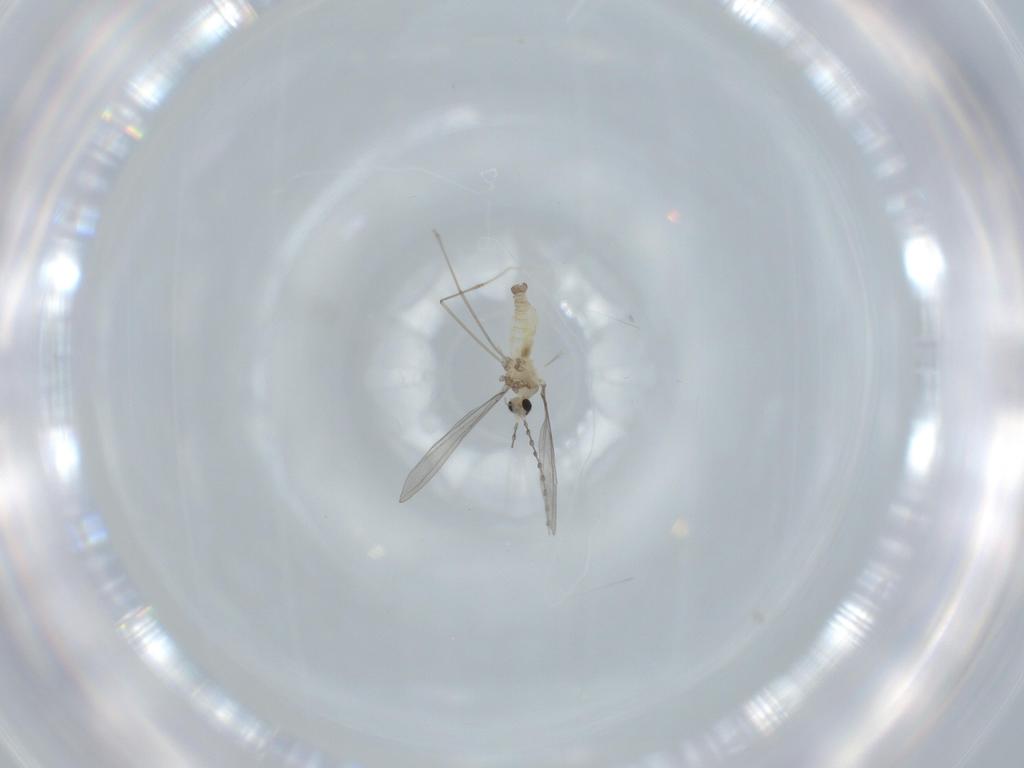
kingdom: Animalia
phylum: Arthropoda
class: Insecta
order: Diptera
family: Cecidomyiidae
